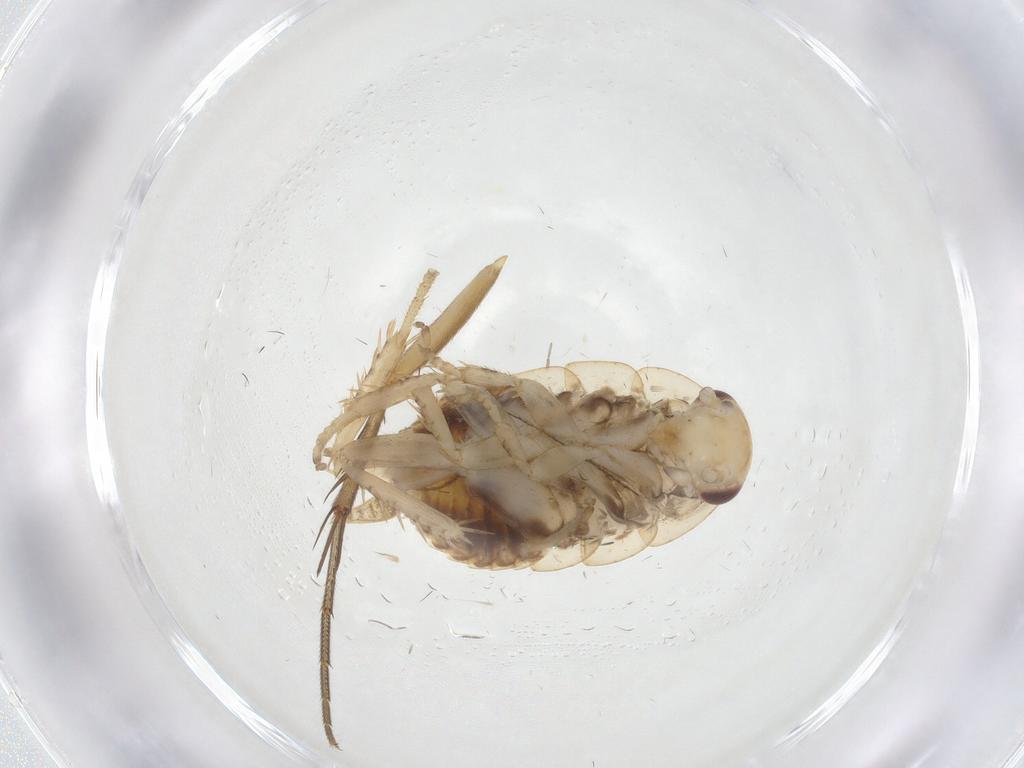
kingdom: Animalia
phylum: Arthropoda
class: Insecta
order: Blattodea
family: Ectobiidae
